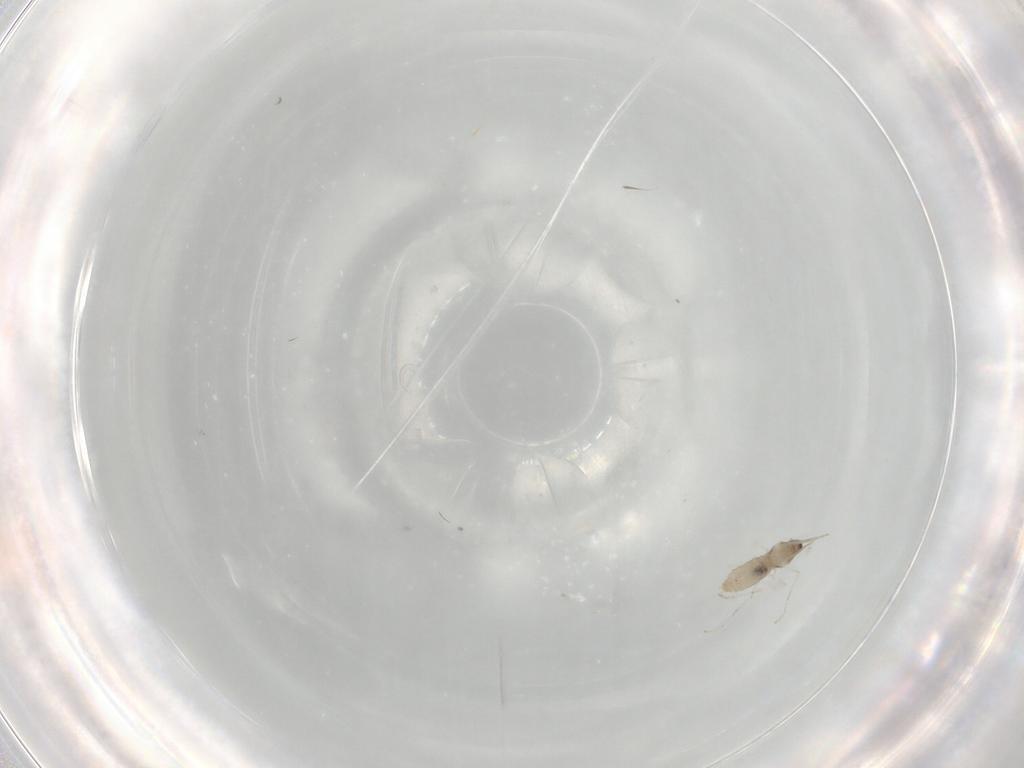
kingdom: Animalia
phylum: Arthropoda
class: Insecta
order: Diptera
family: Cecidomyiidae
